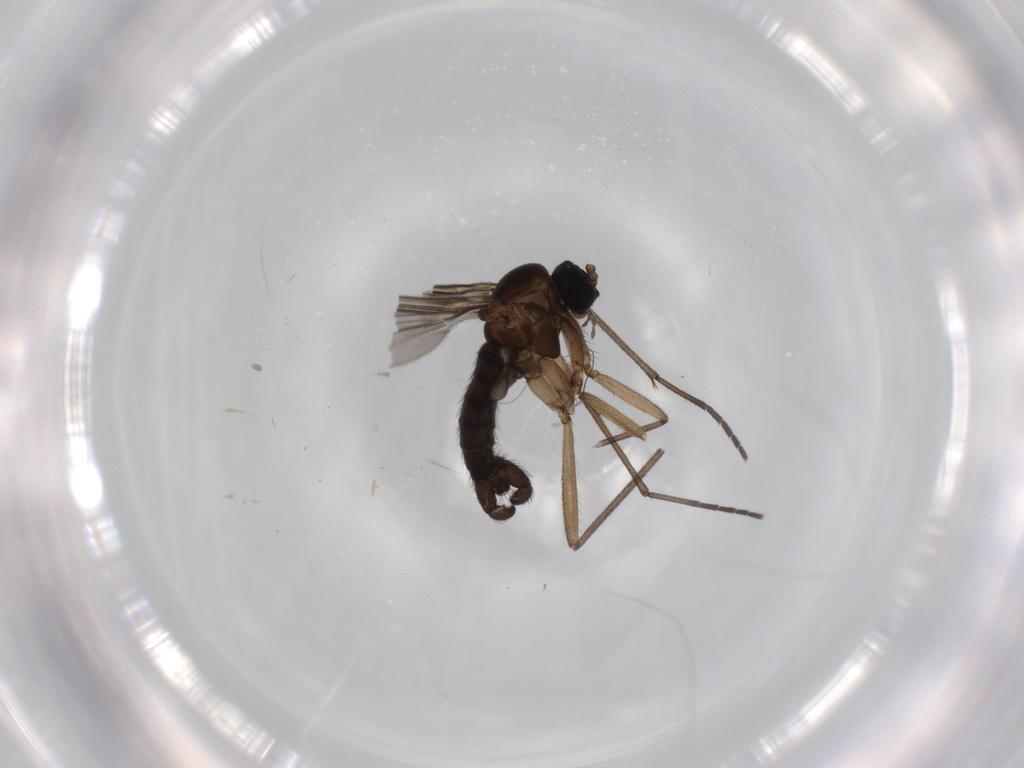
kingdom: Animalia
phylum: Arthropoda
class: Insecta
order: Diptera
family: Sciaridae
